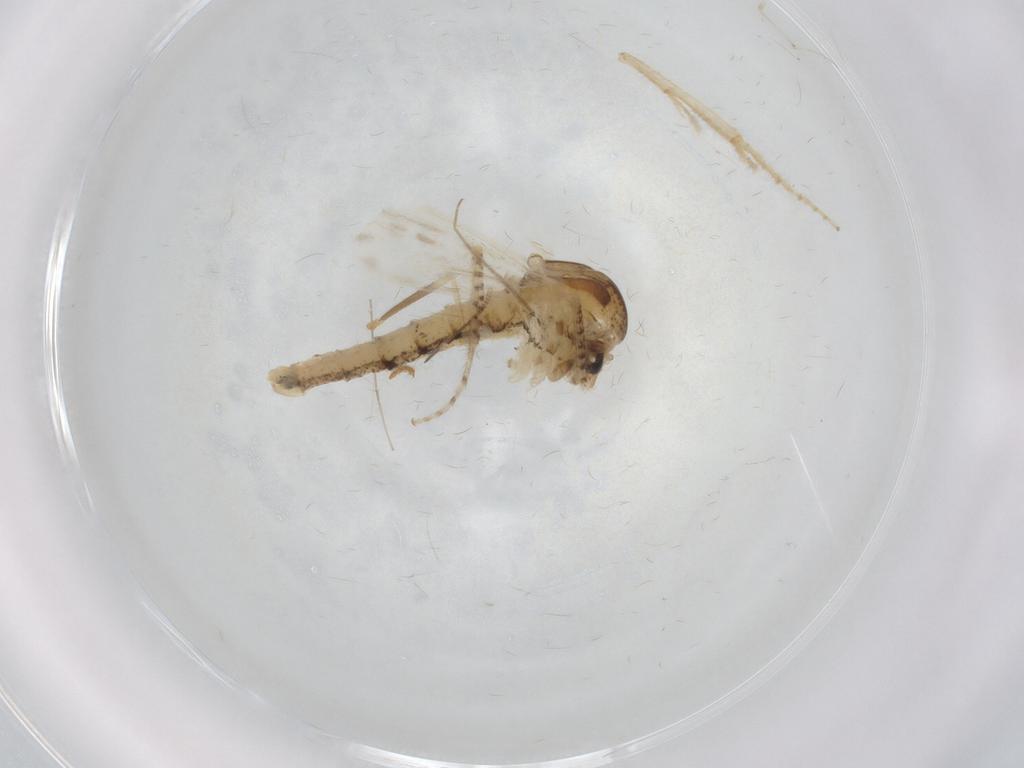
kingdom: Animalia
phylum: Arthropoda
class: Insecta
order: Diptera
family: Chaoboridae
